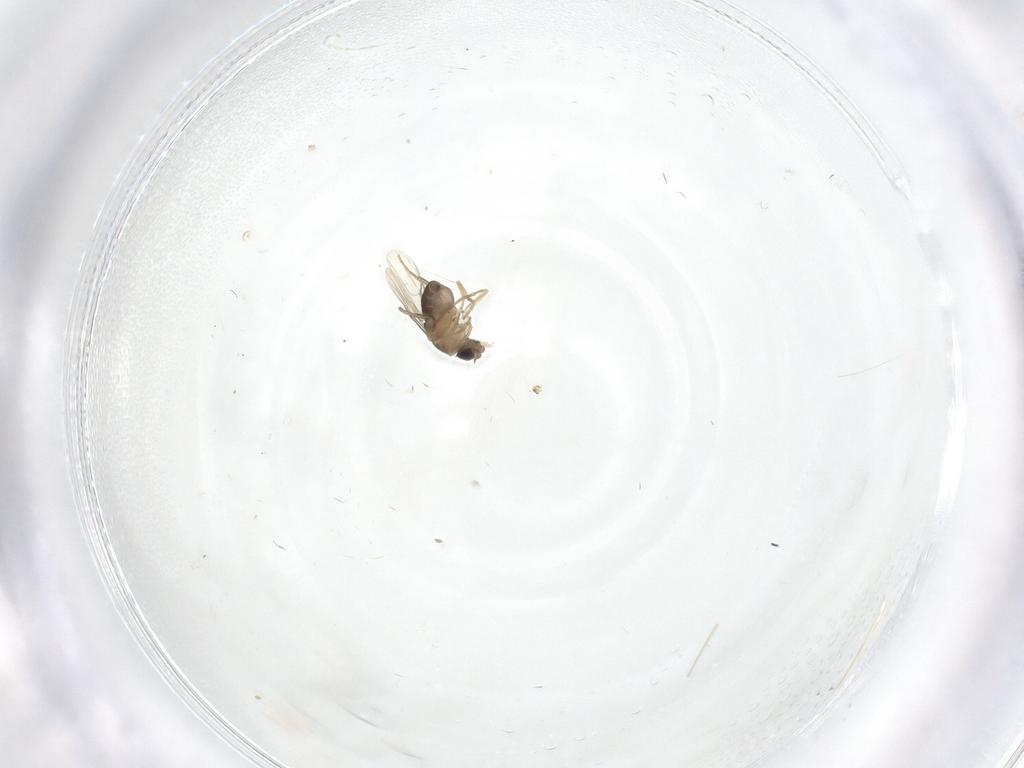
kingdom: Animalia
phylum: Arthropoda
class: Insecta
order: Diptera
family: Phoridae
